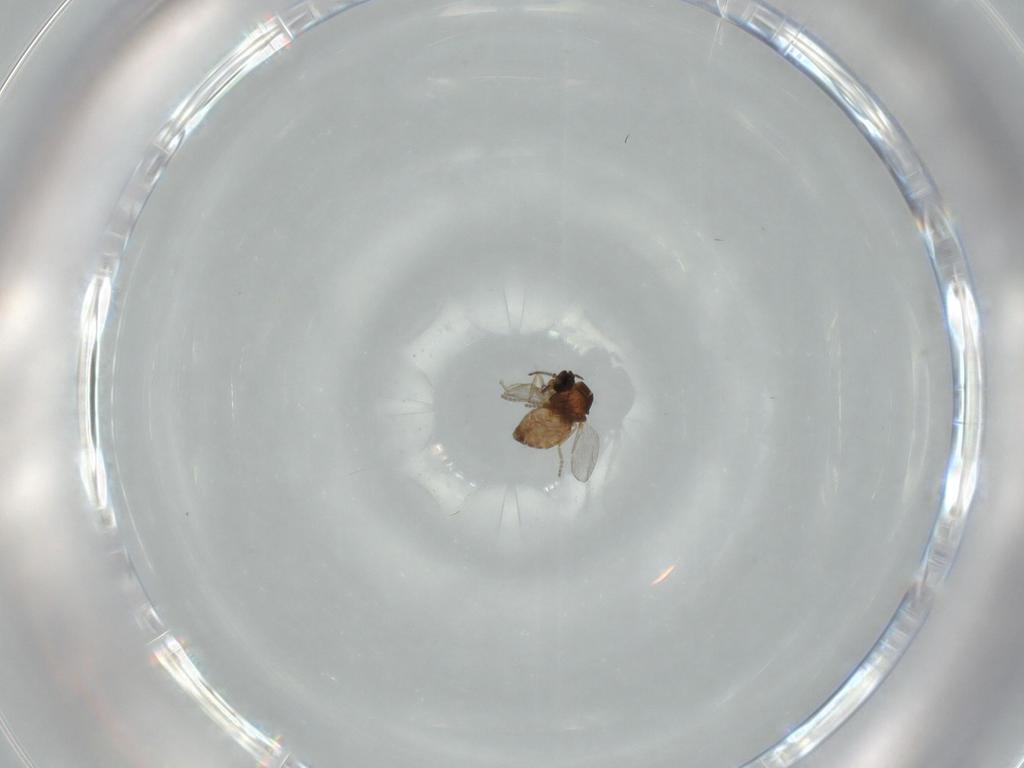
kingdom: Animalia
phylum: Arthropoda
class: Insecta
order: Diptera
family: Ceratopogonidae
